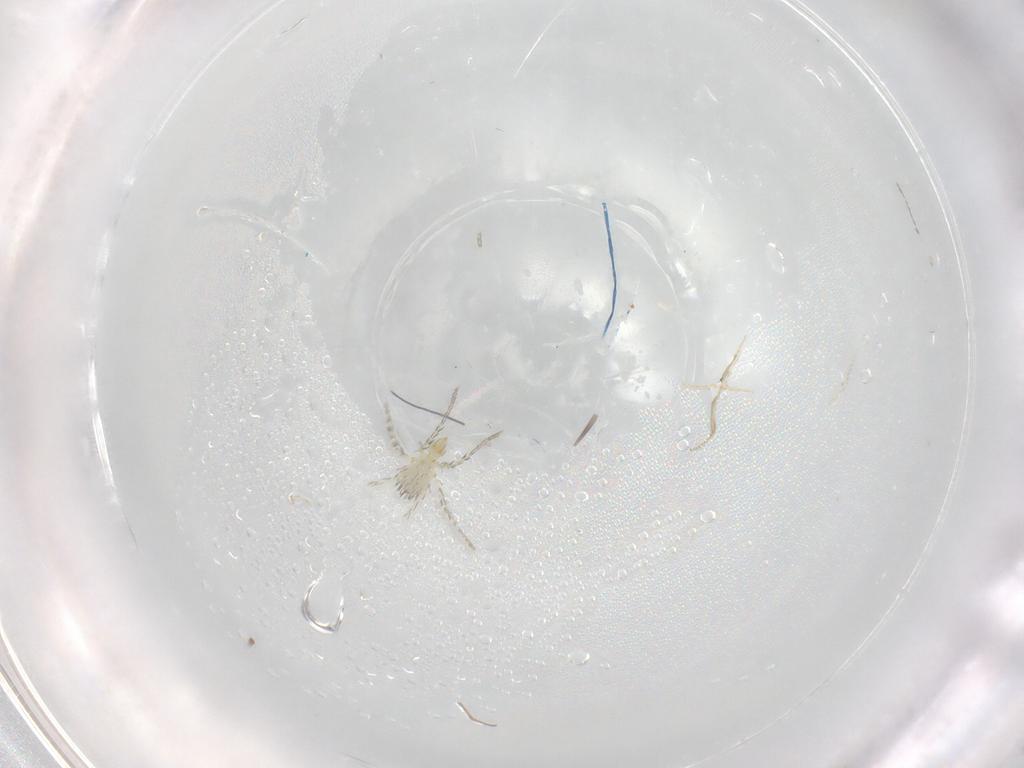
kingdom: Animalia
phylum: Arthropoda
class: Arachnida
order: Trombidiformes
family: Erythraeidae
